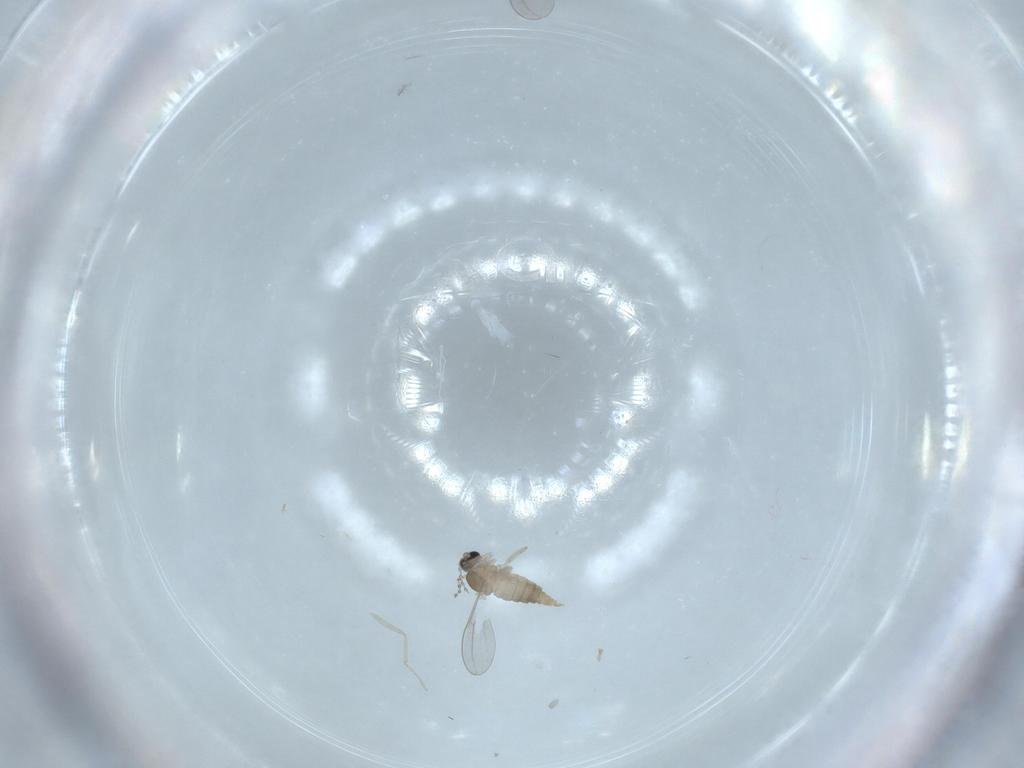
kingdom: Animalia
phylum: Arthropoda
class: Insecta
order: Diptera
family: Cecidomyiidae
